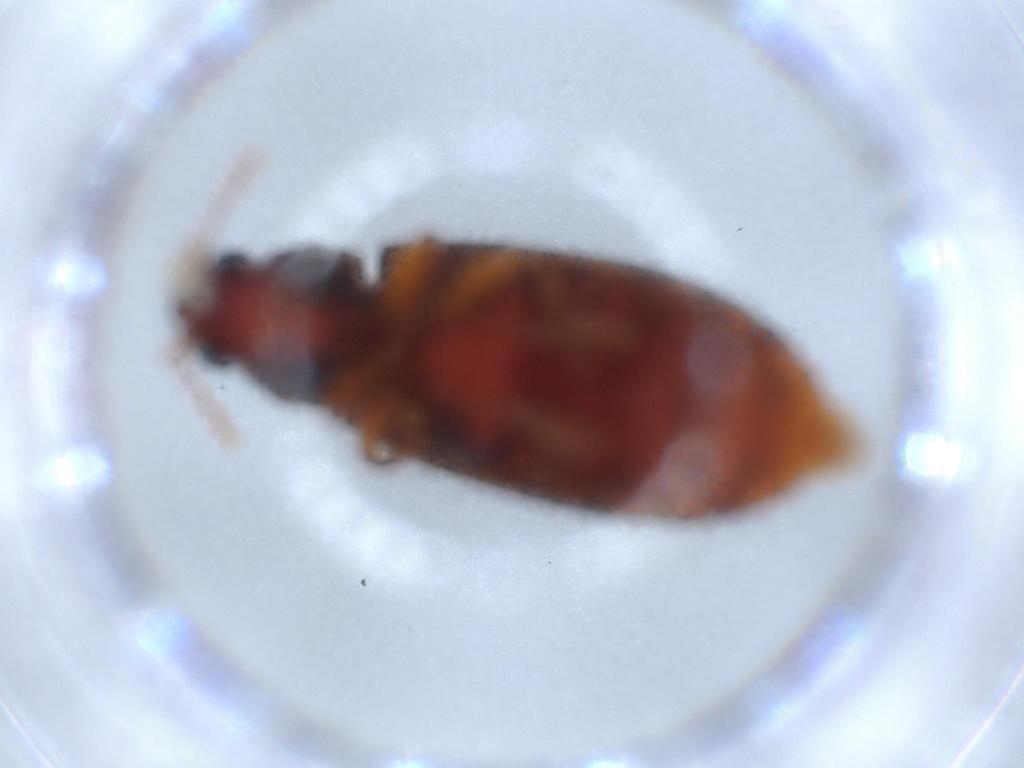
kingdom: Animalia
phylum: Arthropoda
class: Insecta
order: Coleoptera
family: Mycteridae
